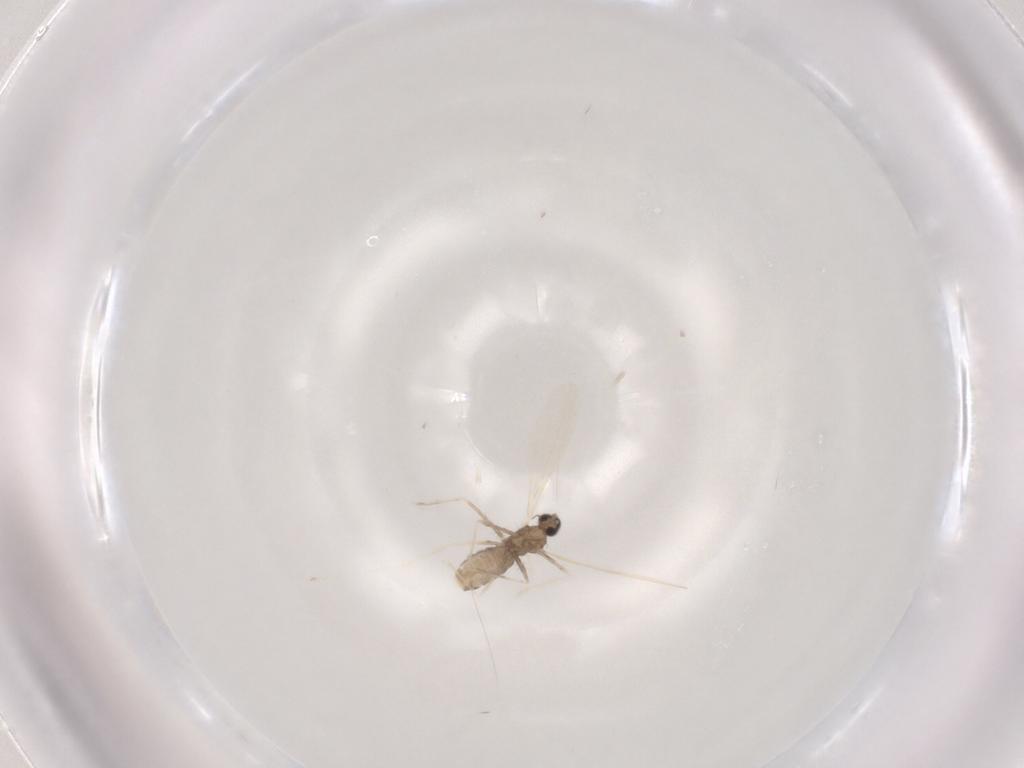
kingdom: Animalia
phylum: Arthropoda
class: Insecta
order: Diptera
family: Cecidomyiidae
